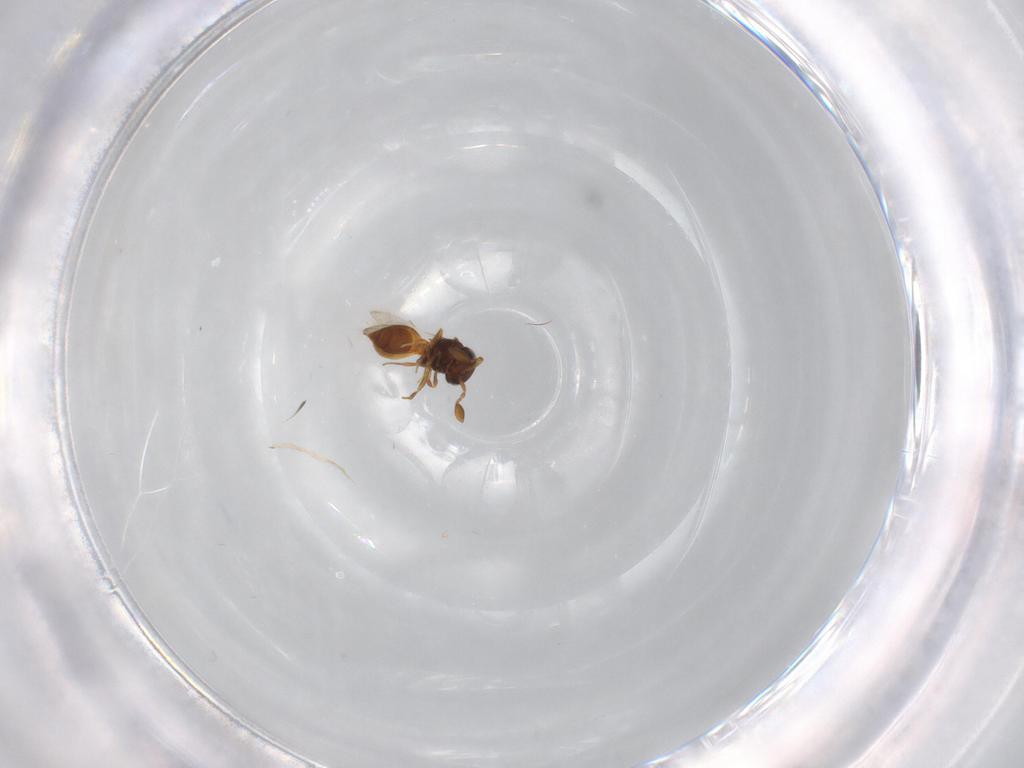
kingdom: Animalia
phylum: Arthropoda
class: Insecta
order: Hymenoptera
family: Scelionidae
